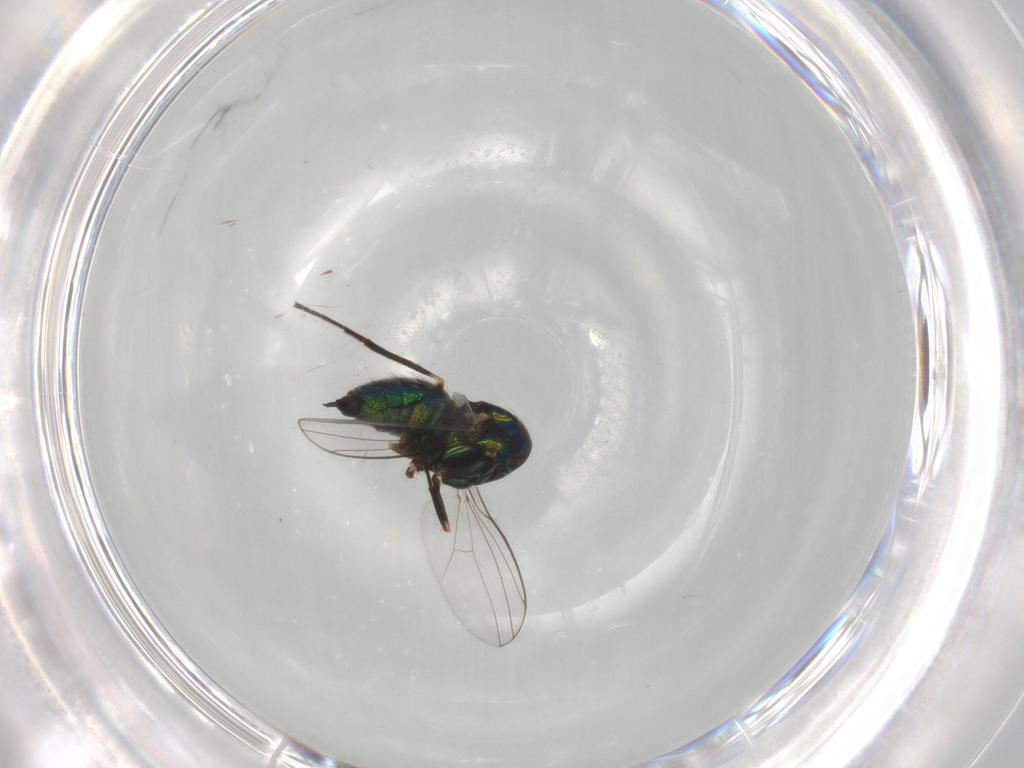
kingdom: Animalia
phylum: Arthropoda
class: Insecta
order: Diptera
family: Dolichopodidae
